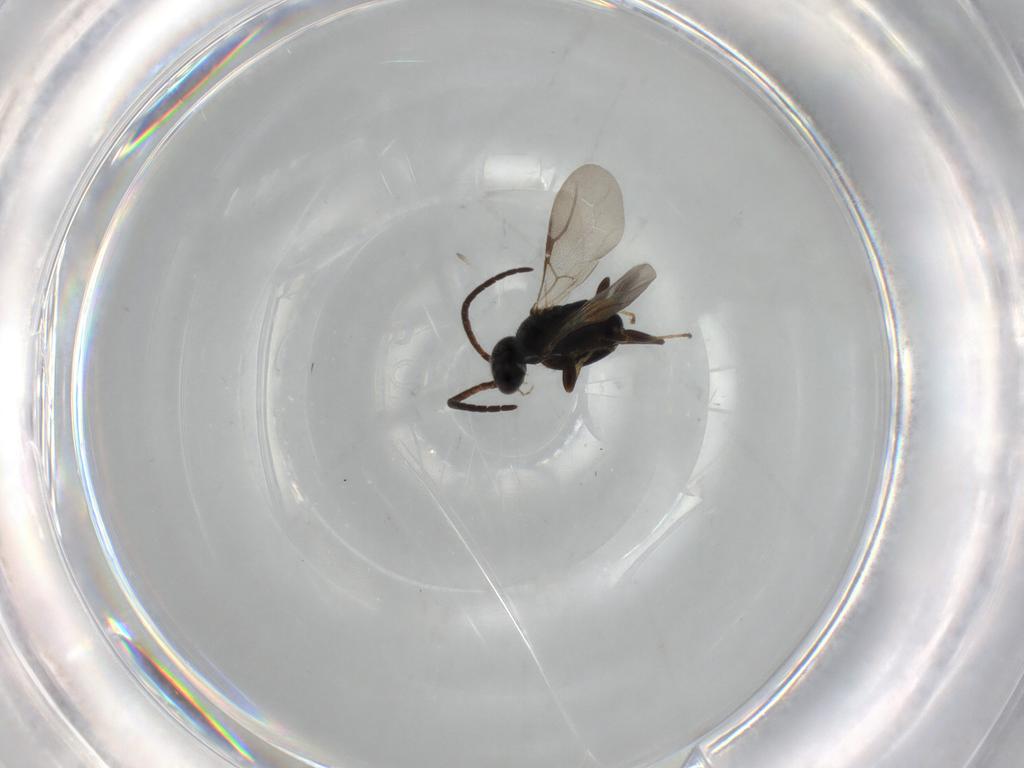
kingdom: Animalia
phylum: Arthropoda
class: Insecta
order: Hymenoptera
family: Bethylidae
